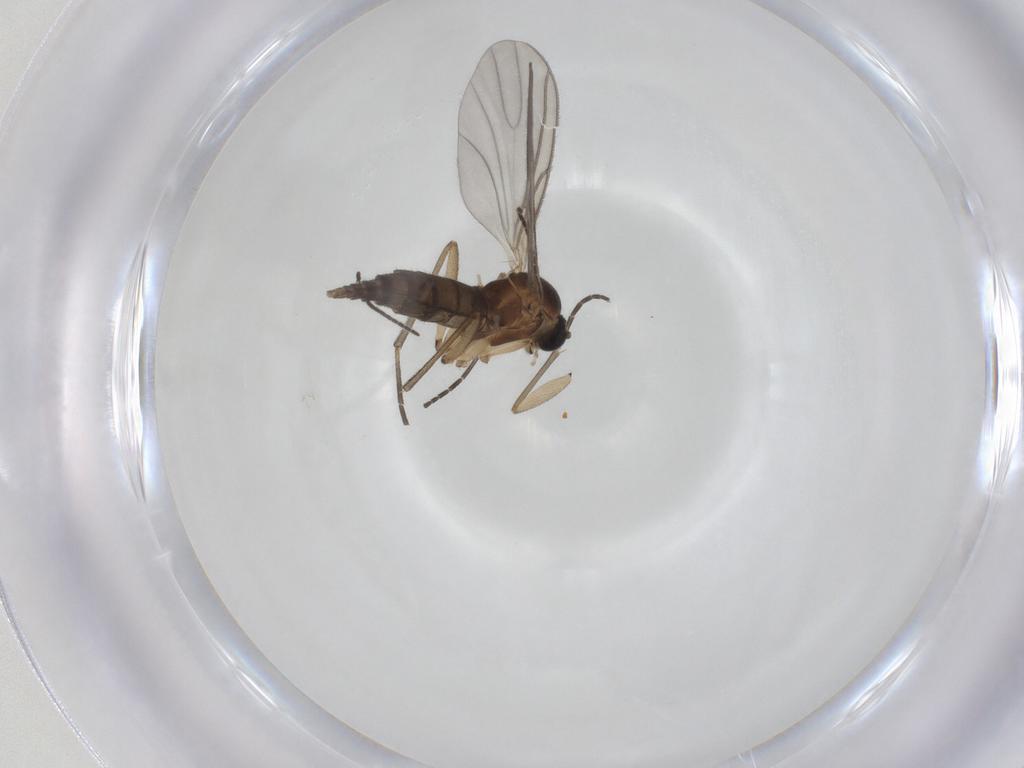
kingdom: Animalia
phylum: Arthropoda
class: Insecta
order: Diptera
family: Sciaridae
